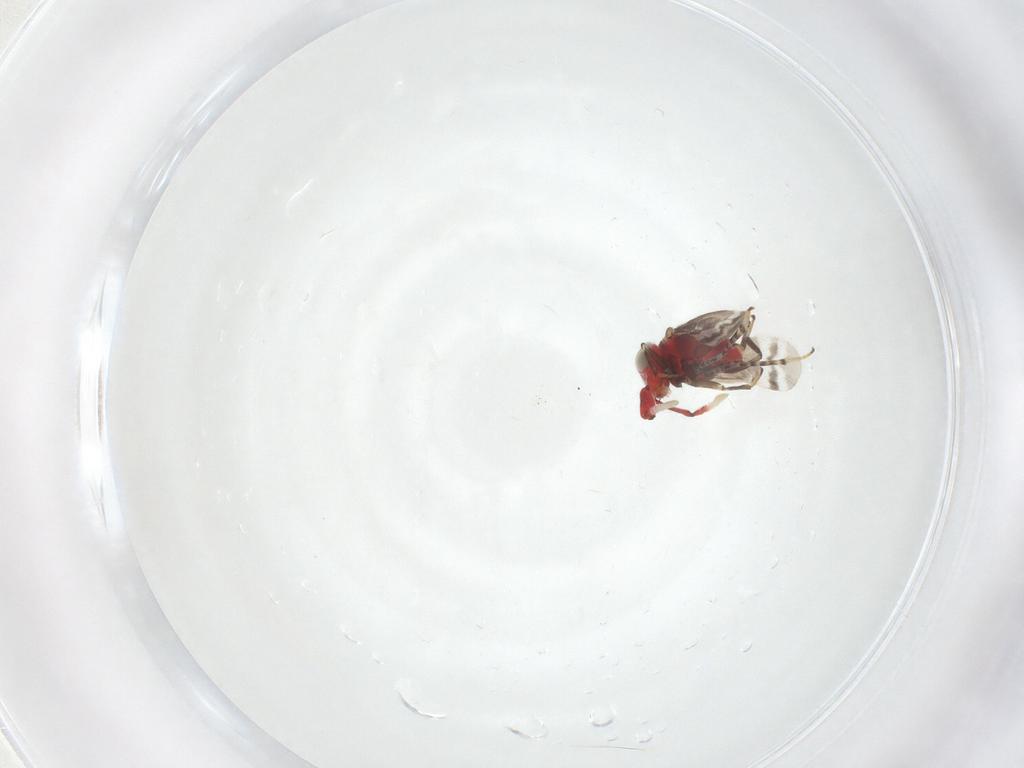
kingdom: Animalia
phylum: Arthropoda
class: Insecta
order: Hymenoptera
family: Halictidae
